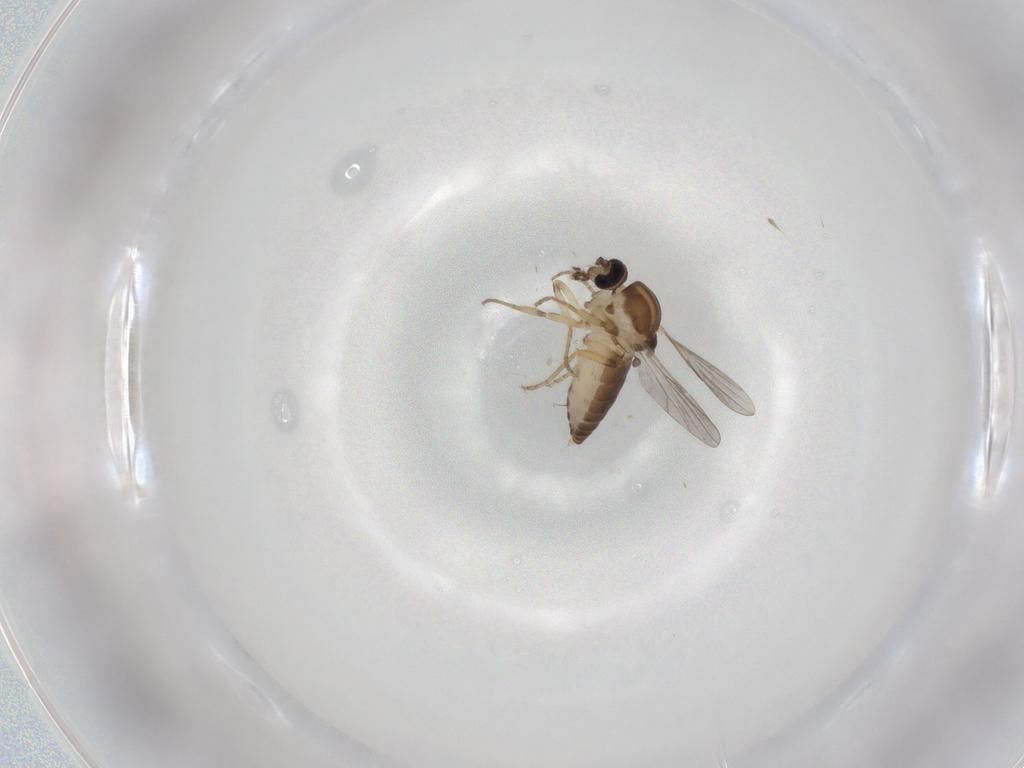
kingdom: Animalia
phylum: Arthropoda
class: Insecta
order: Diptera
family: Ceratopogonidae
